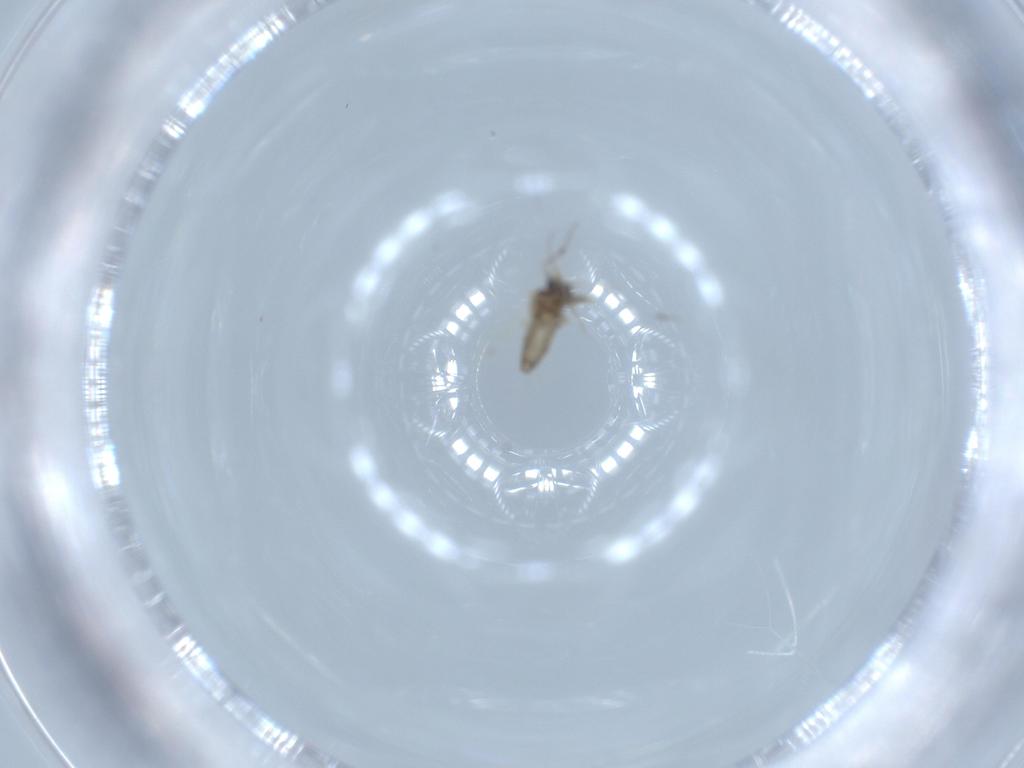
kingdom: Animalia
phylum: Arthropoda
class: Insecta
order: Diptera
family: Ceratopogonidae
